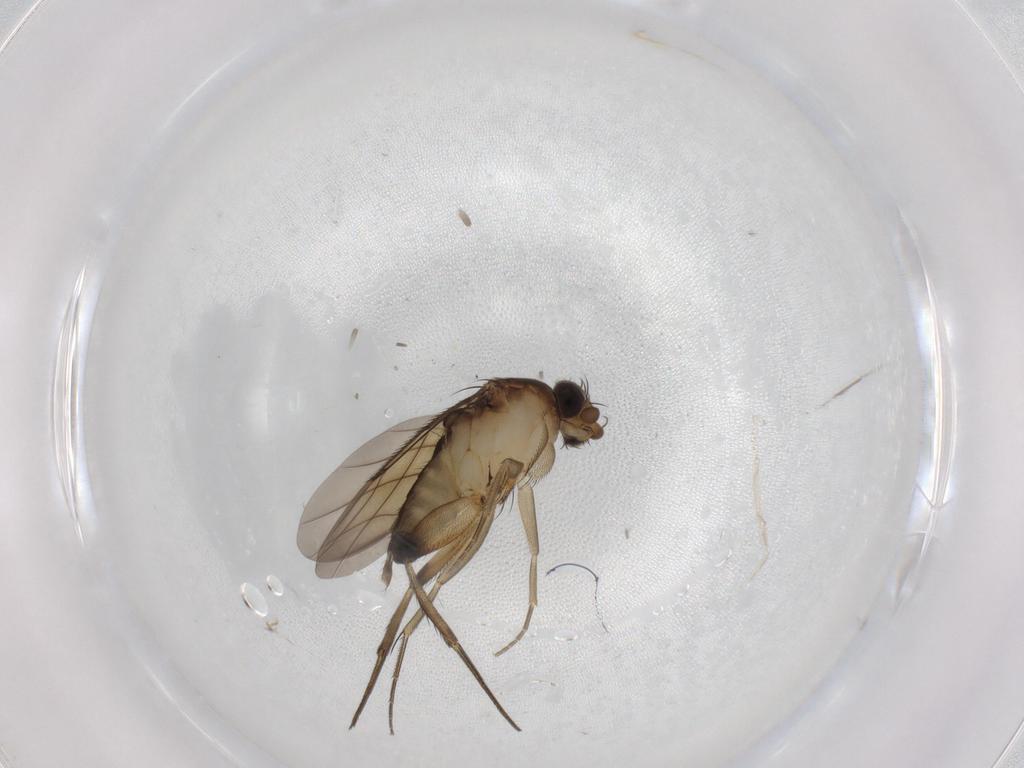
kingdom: Animalia
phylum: Arthropoda
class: Insecta
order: Diptera
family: Phoridae
